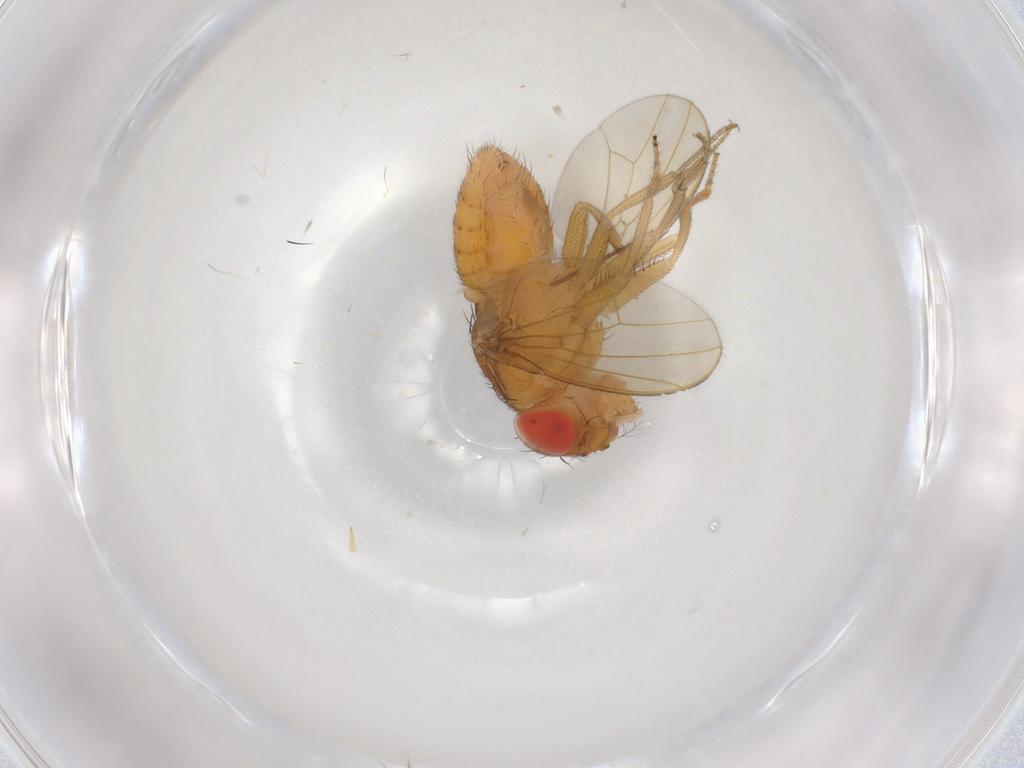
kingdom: Animalia
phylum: Arthropoda
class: Insecta
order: Diptera
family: Drosophilidae
